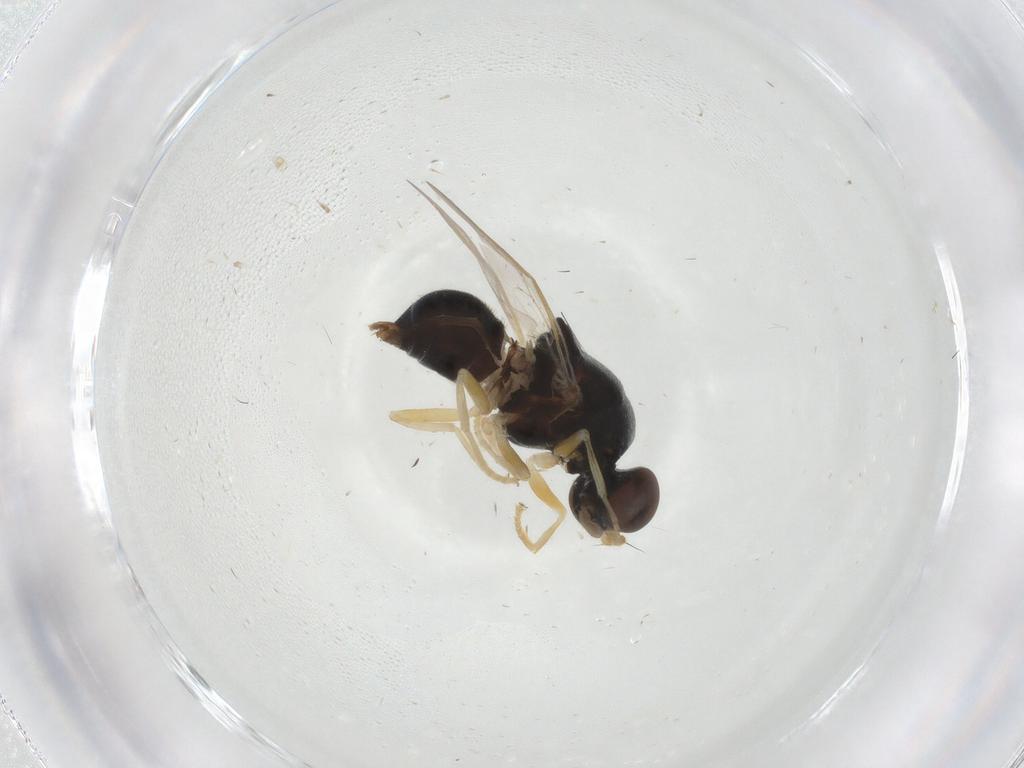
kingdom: Animalia
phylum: Arthropoda
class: Insecta
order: Diptera
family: Stratiomyidae
